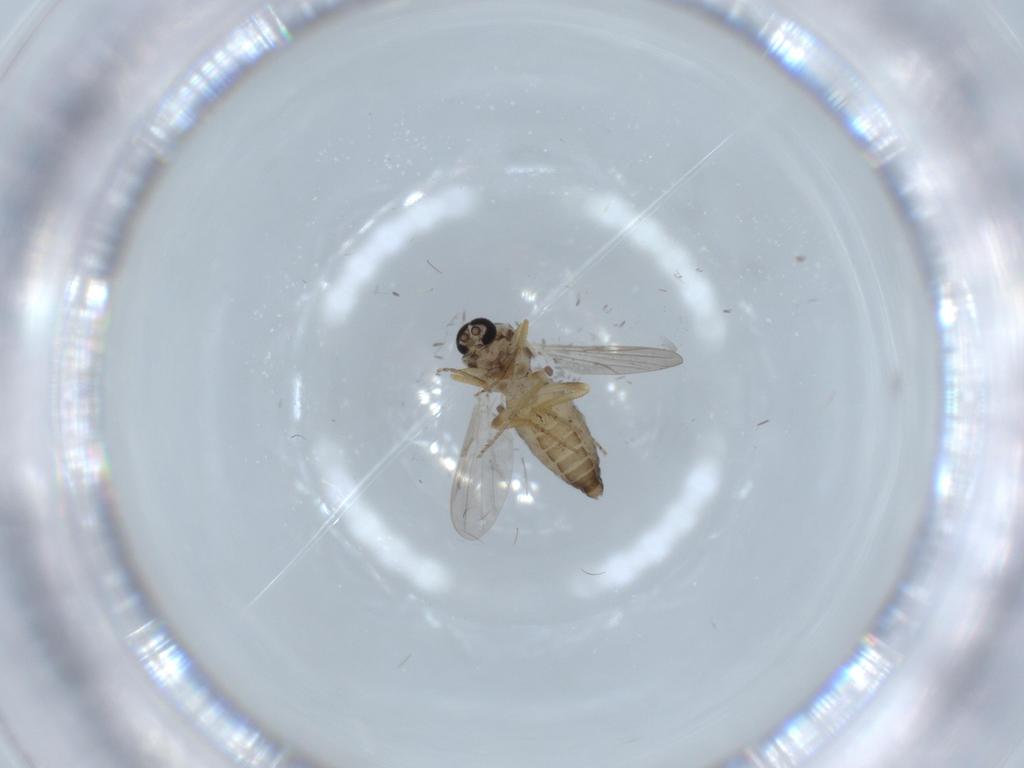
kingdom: Animalia
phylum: Arthropoda
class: Insecta
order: Diptera
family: Ceratopogonidae
